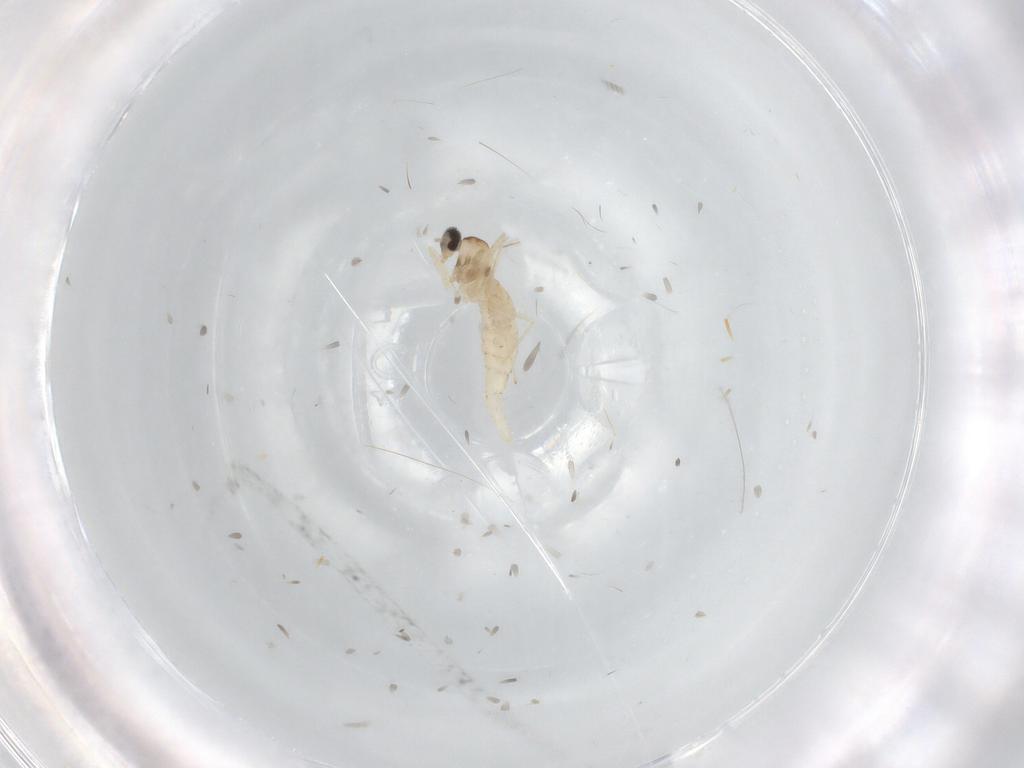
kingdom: Animalia
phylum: Arthropoda
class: Insecta
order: Diptera
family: Cecidomyiidae
